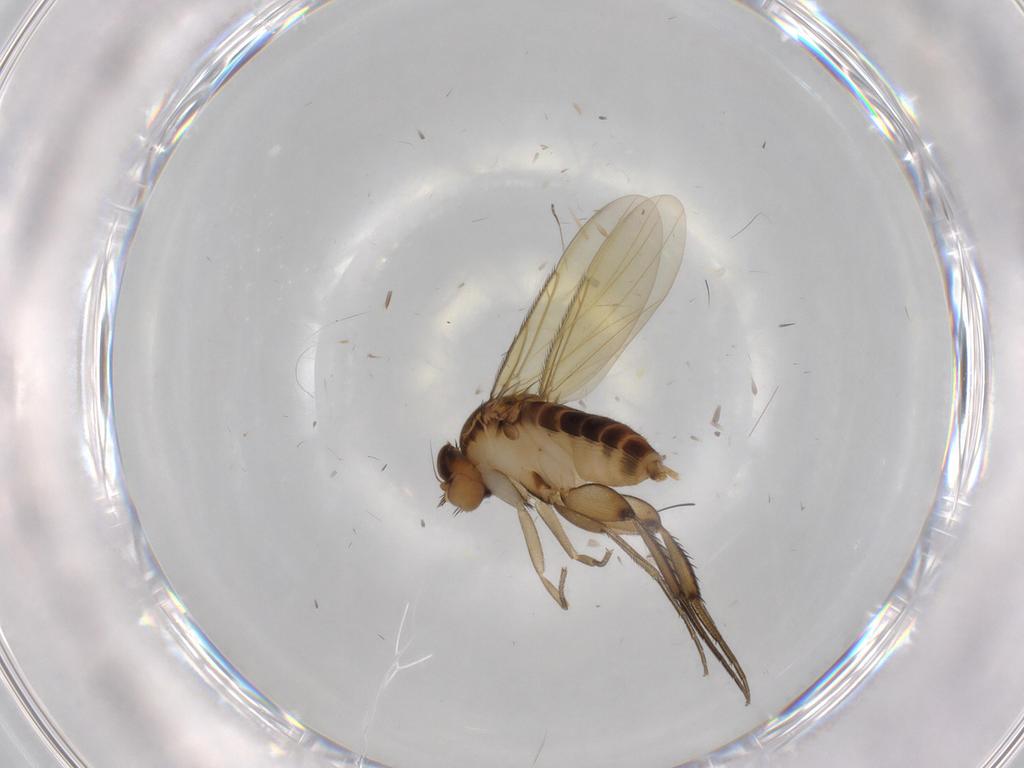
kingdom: Animalia
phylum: Arthropoda
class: Insecta
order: Diptera
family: Phoridae
